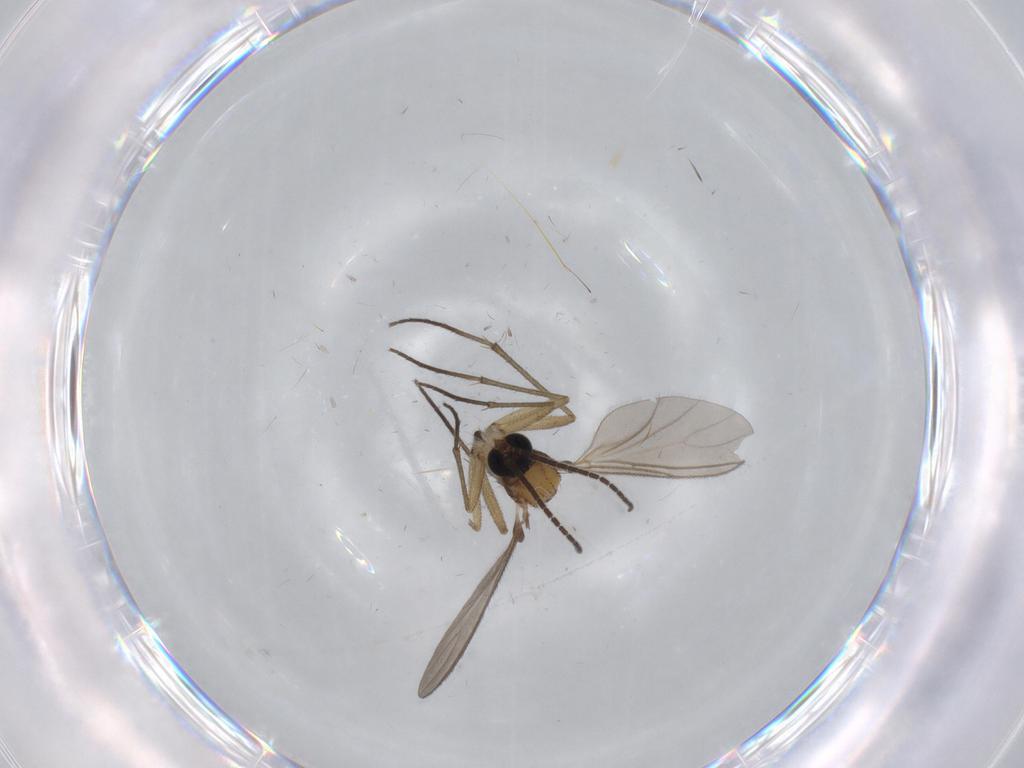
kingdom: Animalia
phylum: Arthropoda
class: Insecta
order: Diptera
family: Sciaridae
